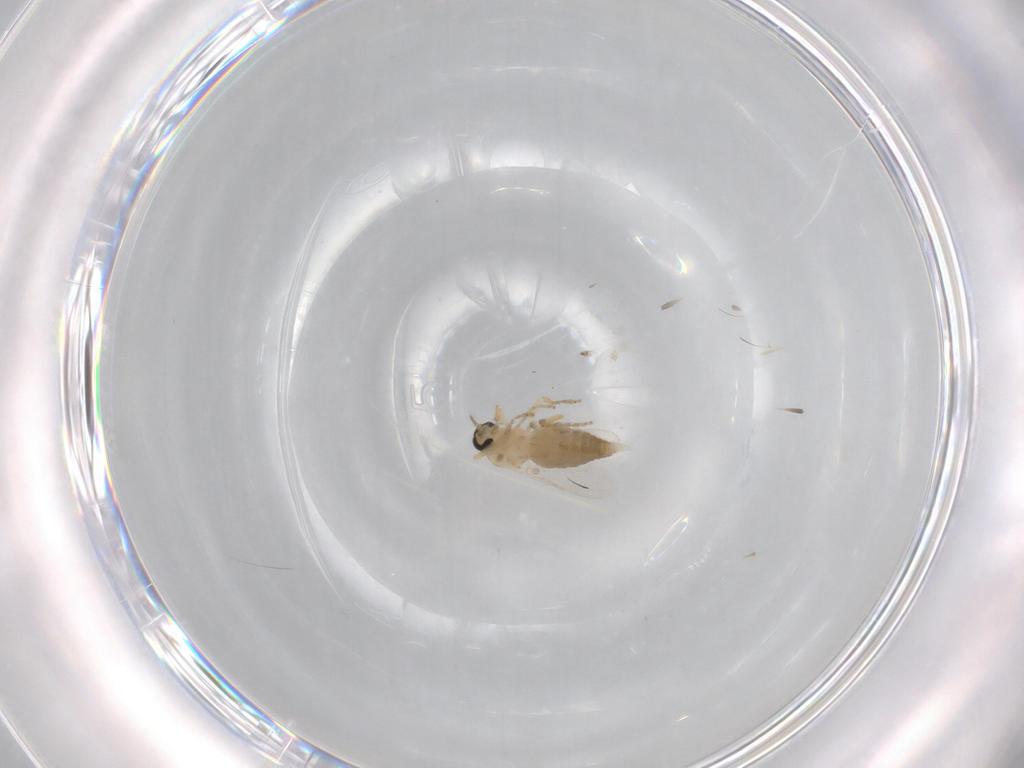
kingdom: Animalia
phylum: Arthropoda
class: Insecta
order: Diptera
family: Ceratopogonidae
